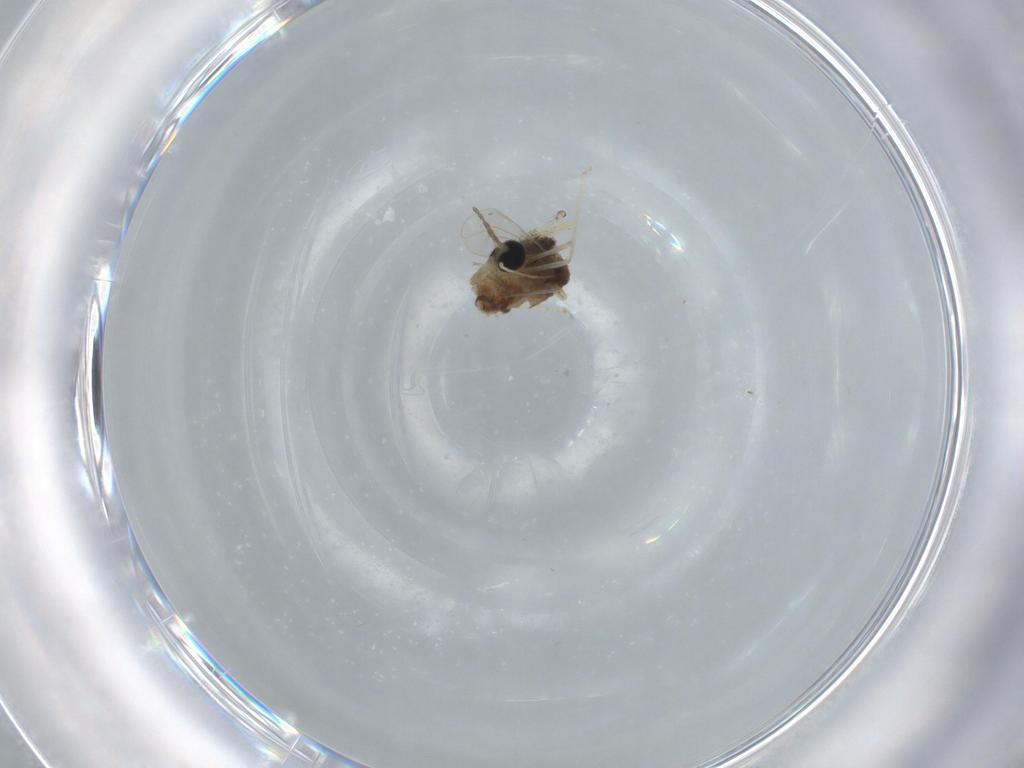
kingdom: Animalia
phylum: Arthropoda
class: Insecta
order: Diptera
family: Cecidomyiidae
